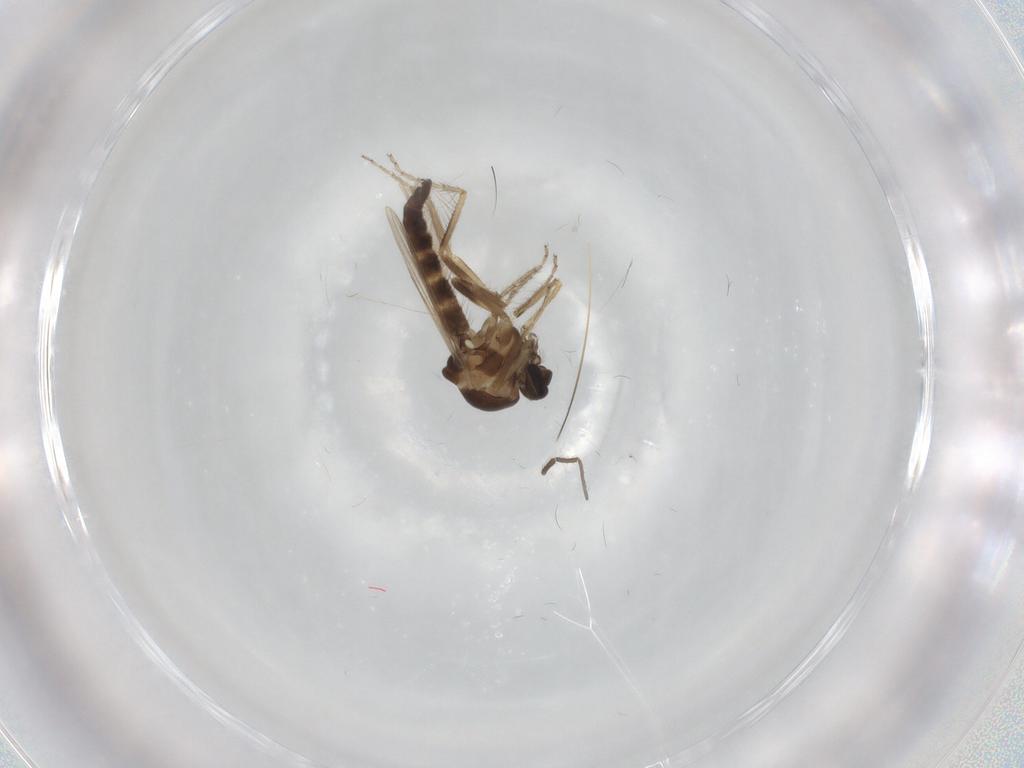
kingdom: Animalia
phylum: Arthropoda
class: Insecta
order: Diptera
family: Ceratopogonidae
